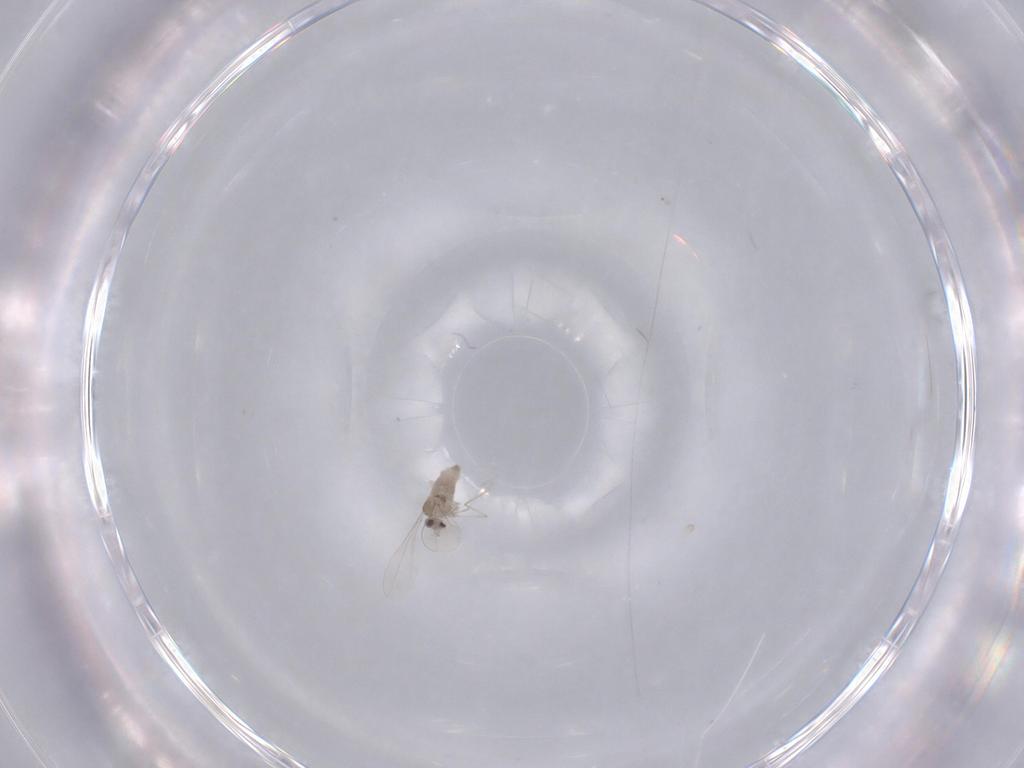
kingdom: Animalia
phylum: Arthropoda
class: Insecta
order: Diptera
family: Cecidomyiidae
